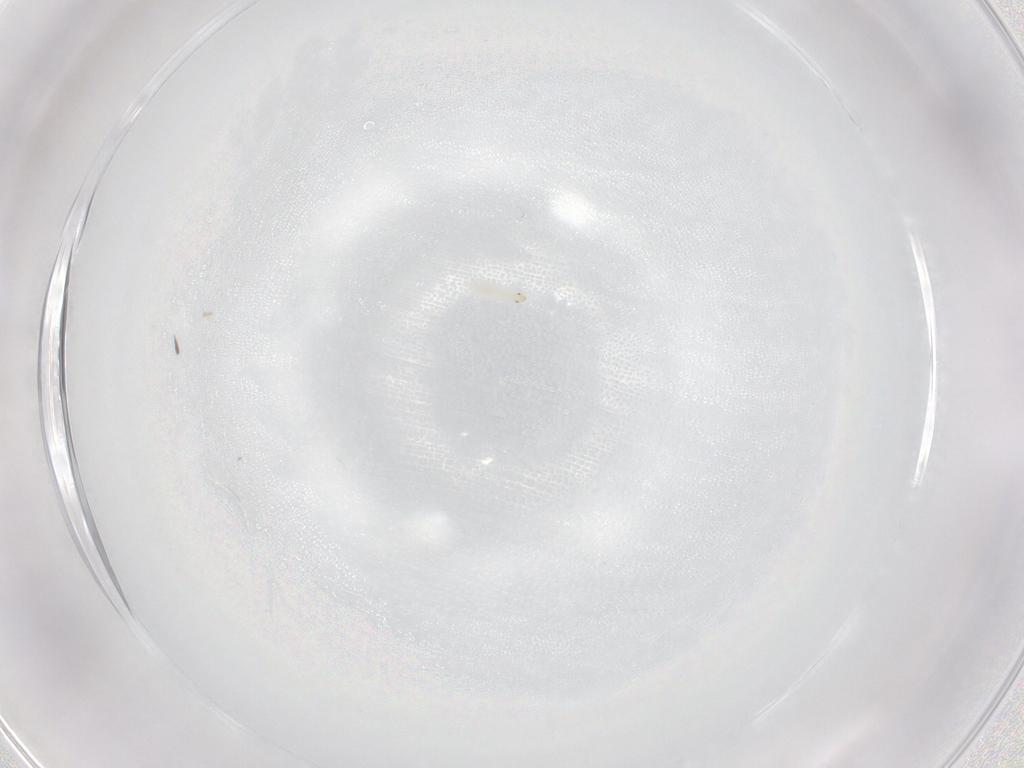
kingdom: Animalia
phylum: Arthropoda
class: Insecta
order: Diptera
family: Stratiomyidae
